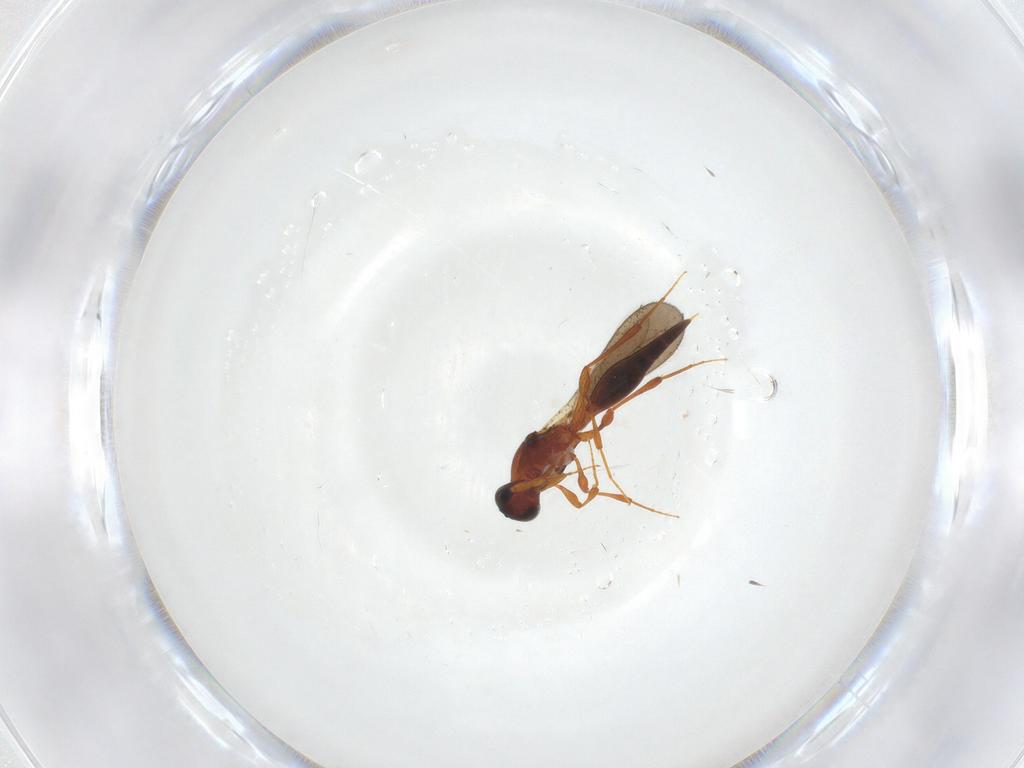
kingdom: Animalia
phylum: Arthropoda
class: Insecta
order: Hymenoptera
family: Platygastridae
